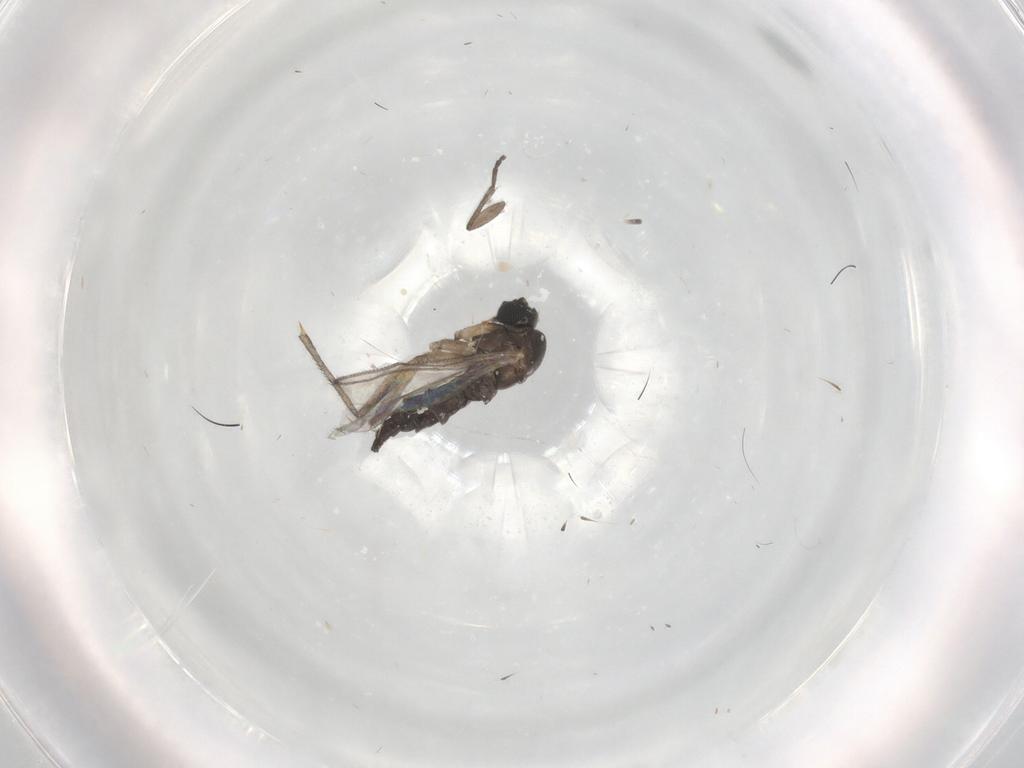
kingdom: Animalia
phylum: Arthropoda
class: Insecta
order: Diptera
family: Sciaridae
